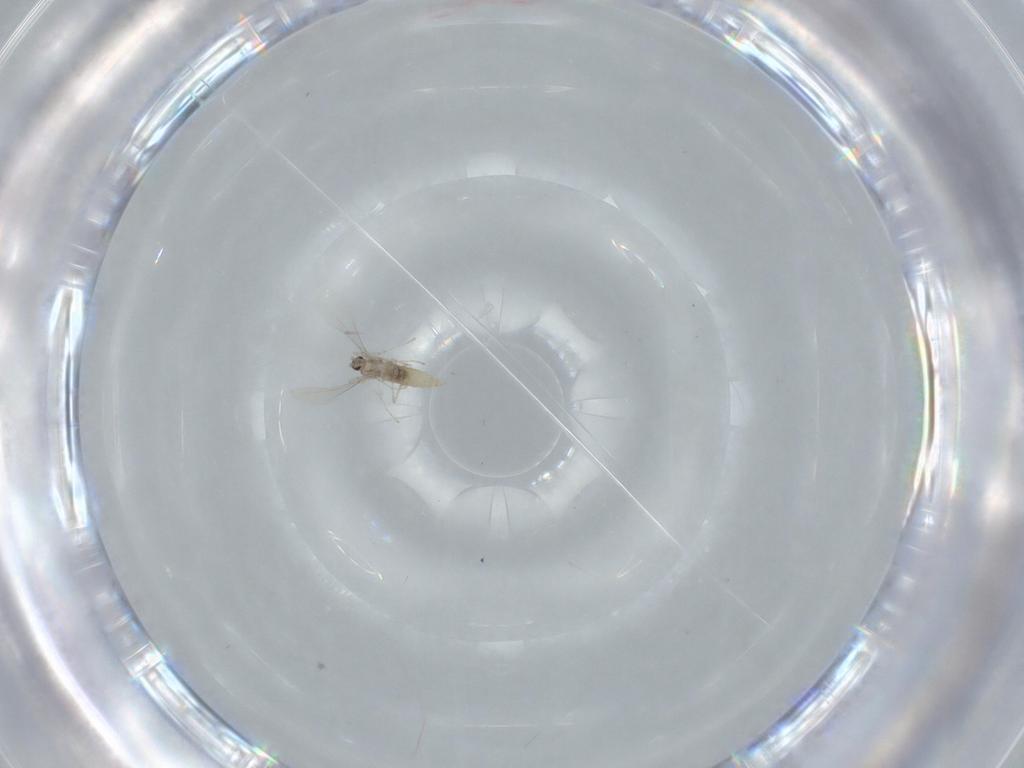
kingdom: Animalia
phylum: Arthropoda
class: Insecta
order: Diptera
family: Cecidomyiidae
